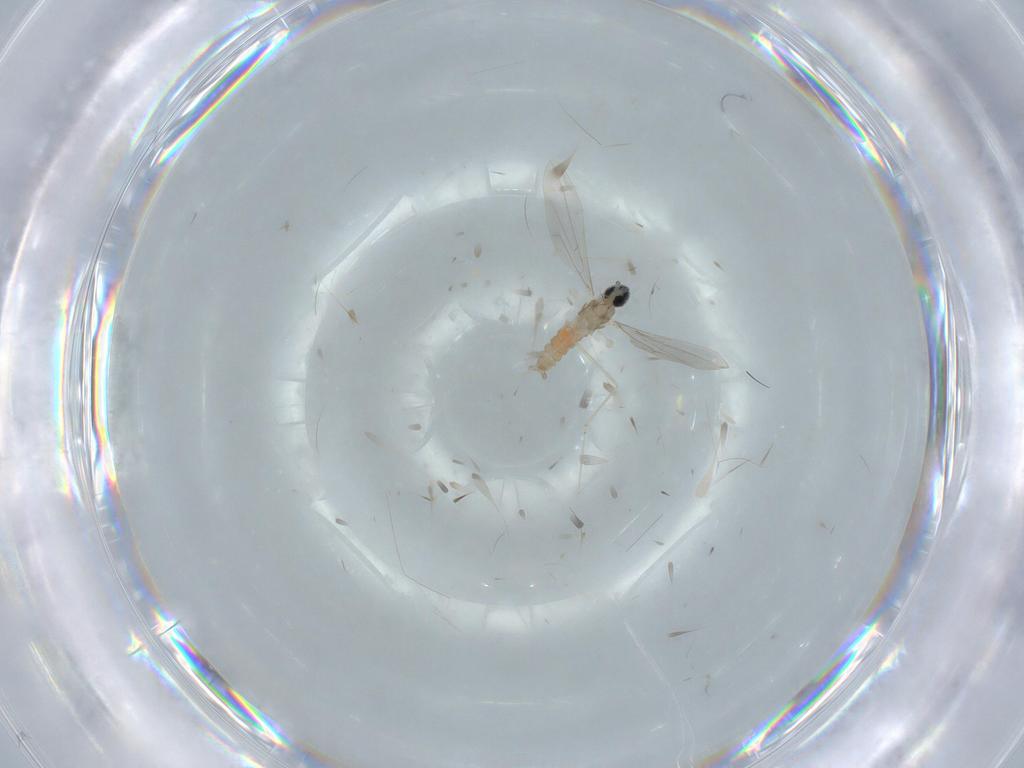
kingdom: Animalia
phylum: Arthropoda
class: Insecta
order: Diptera
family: Cecidomyiidae
